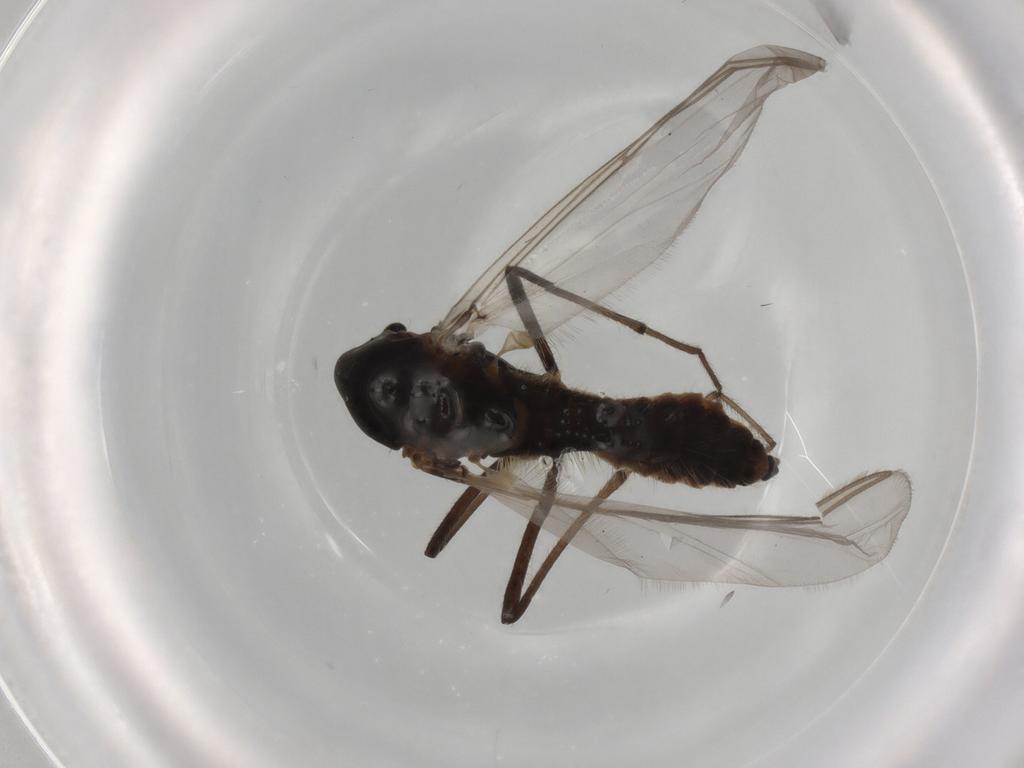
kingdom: Animalia
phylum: Arthropoda
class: Insecta
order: Diptera
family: Chironomidae
